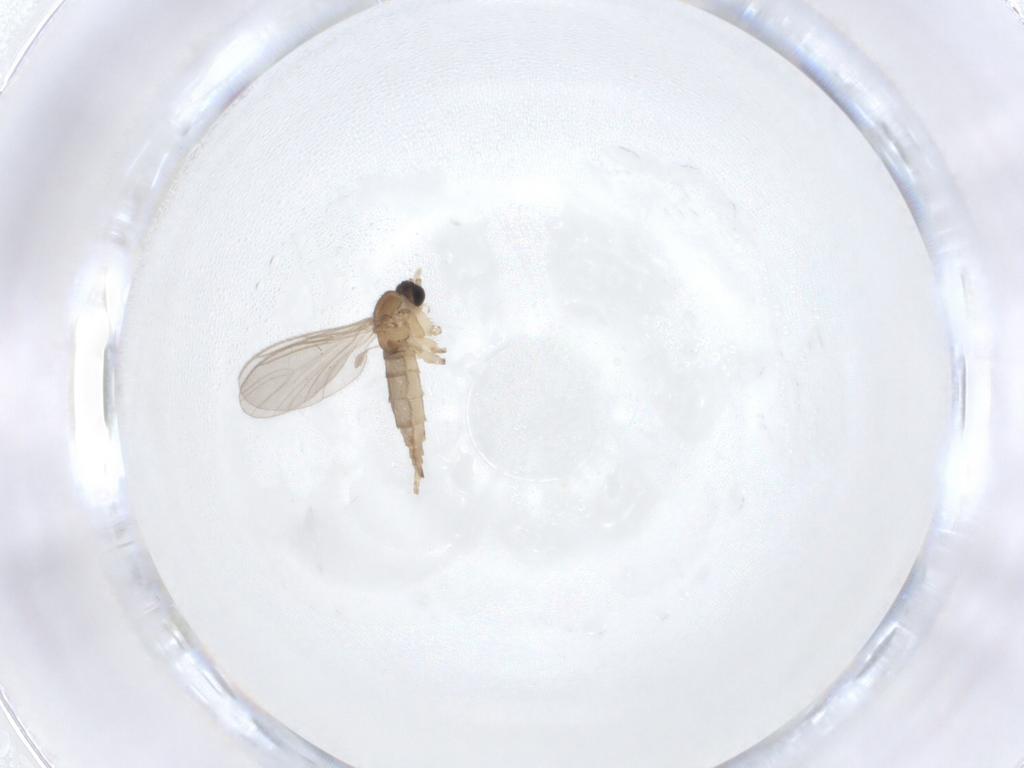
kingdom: Animalia
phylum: Arthropoda
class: Insecta
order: Diptera
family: Sciaridae
